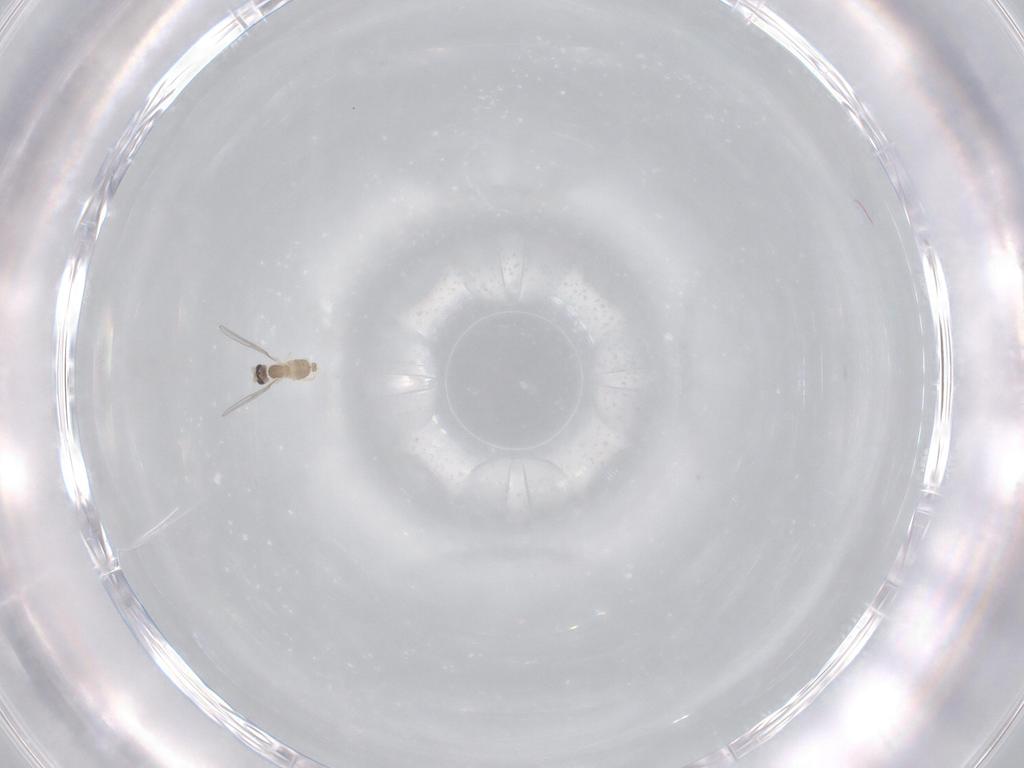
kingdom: Animalia
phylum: Arthropoda
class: Insecta
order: Diptera
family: Cecidomyiidae
